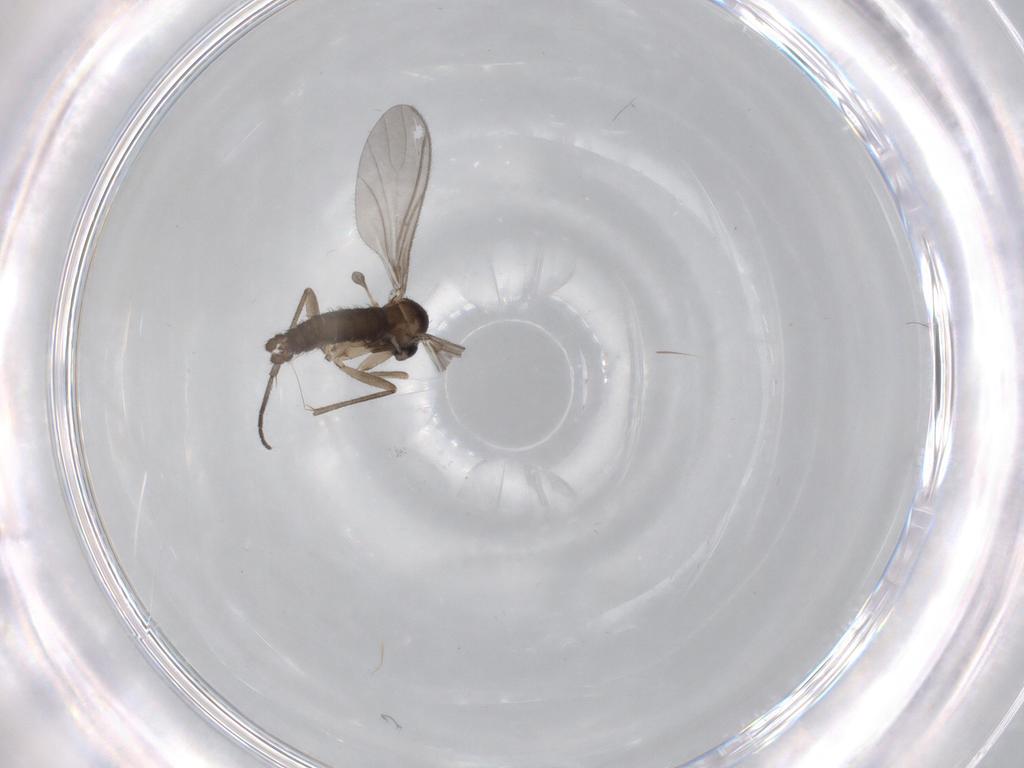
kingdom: Animalia
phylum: Arthropoda
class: Insecta
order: Diptera
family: Sciaridae
